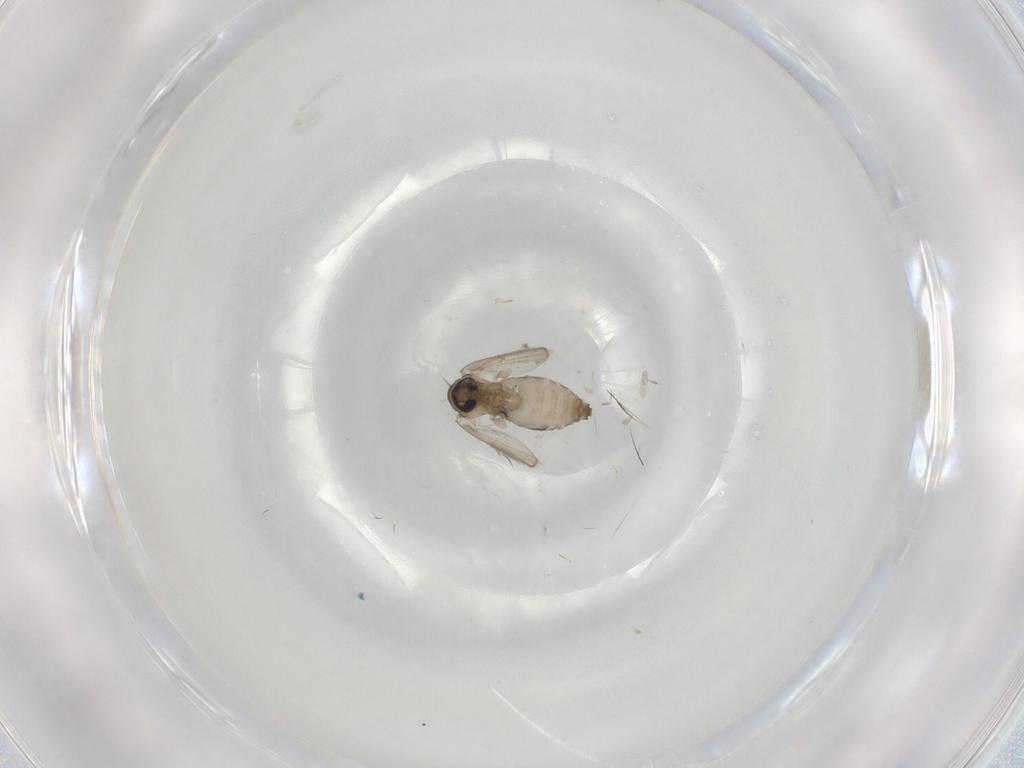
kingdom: Animalia
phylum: Arthropoda
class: Insecta
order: Diptera
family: Psychodidae
